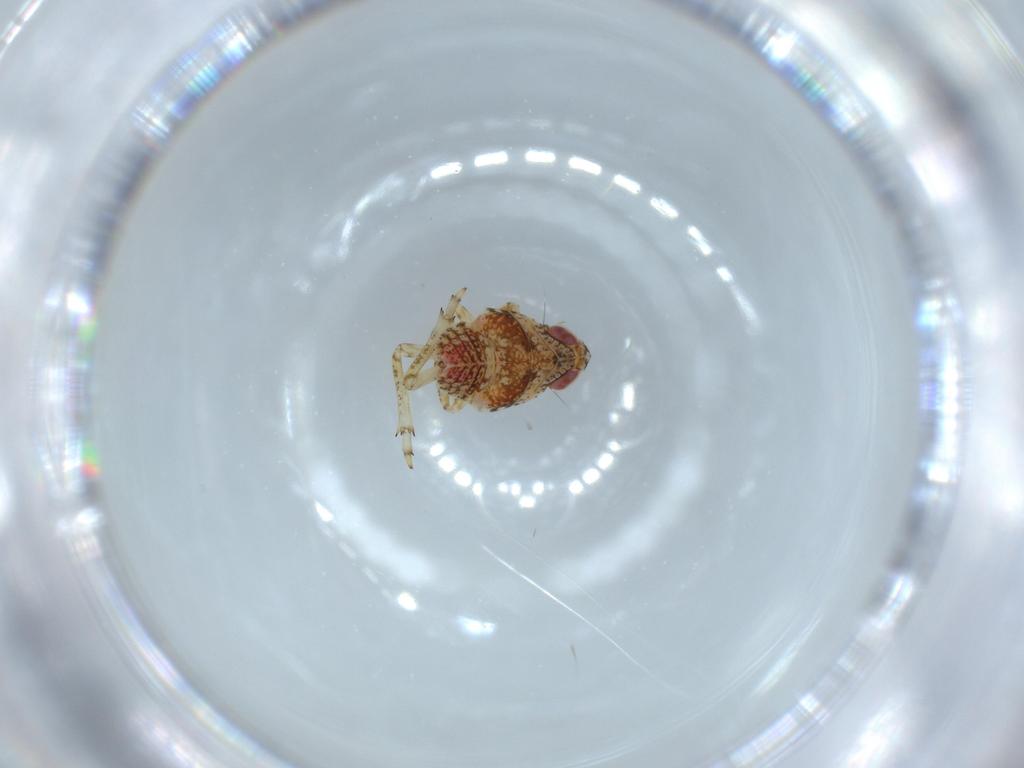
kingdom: Animalia
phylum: Arthropoda
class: Insecta
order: Hemiptera
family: Issidae
